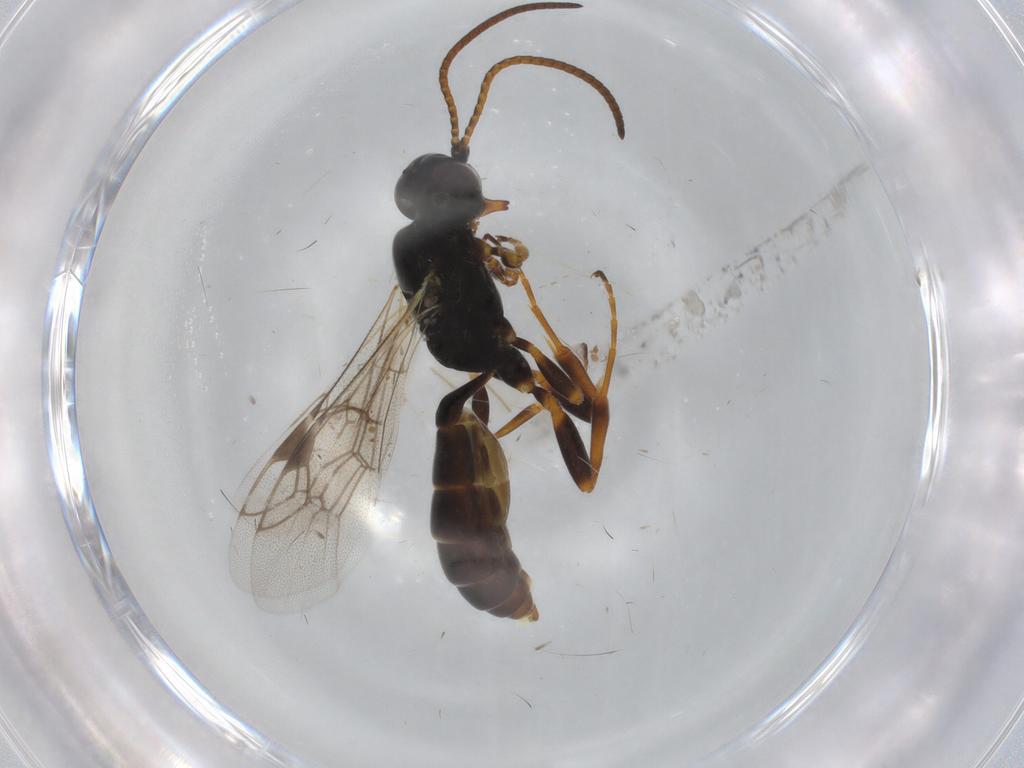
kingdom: Animalia
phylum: Arthropoda
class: Insecta
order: Hymenoptera
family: Ichneumonidae
